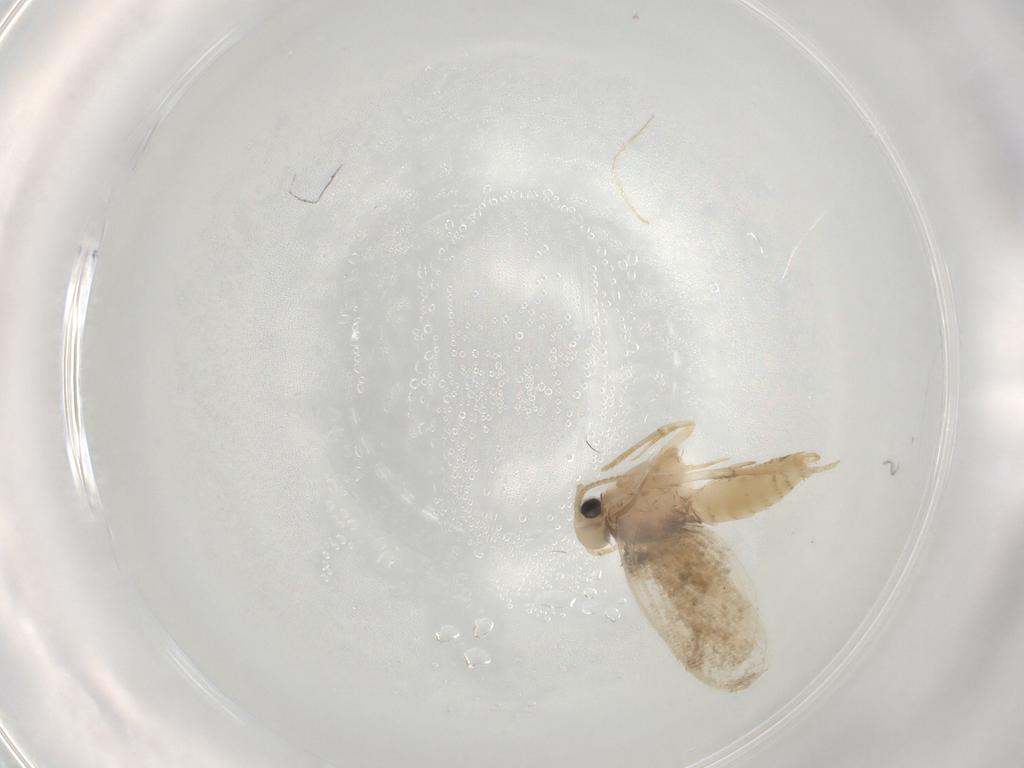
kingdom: Animalia
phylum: Arthropoda
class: Insecta
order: Lepidoptera
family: Psychidae
